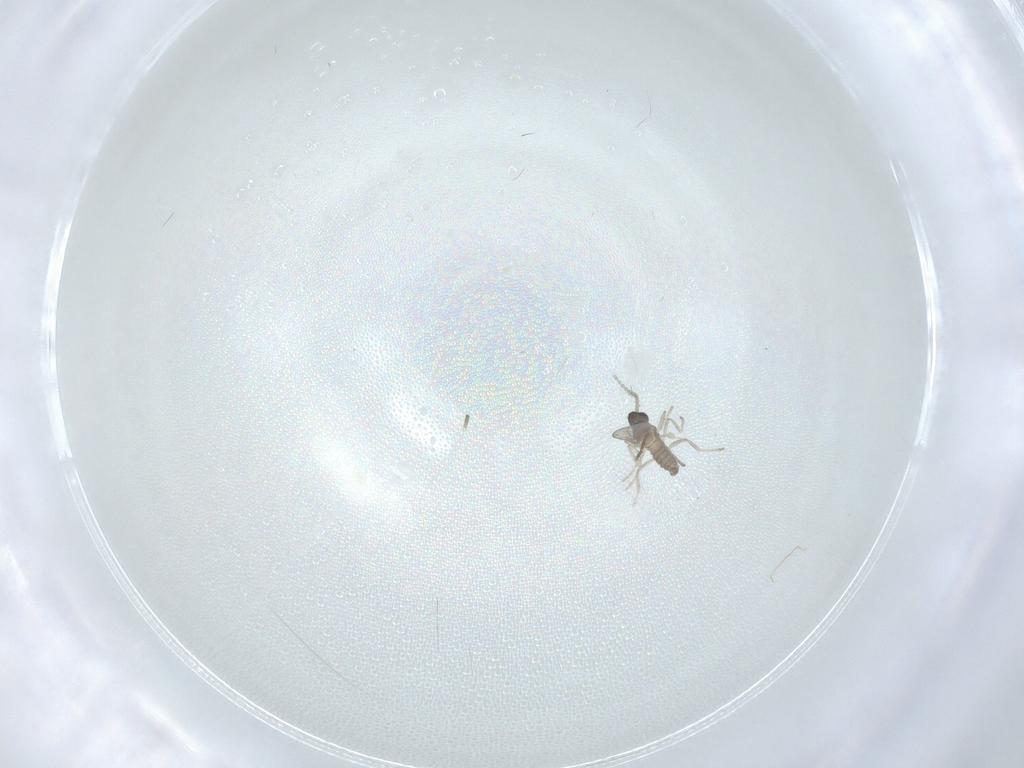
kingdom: Animalia
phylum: Arthropoda
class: Insecta
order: Diptera
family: Cecidomyiidae
